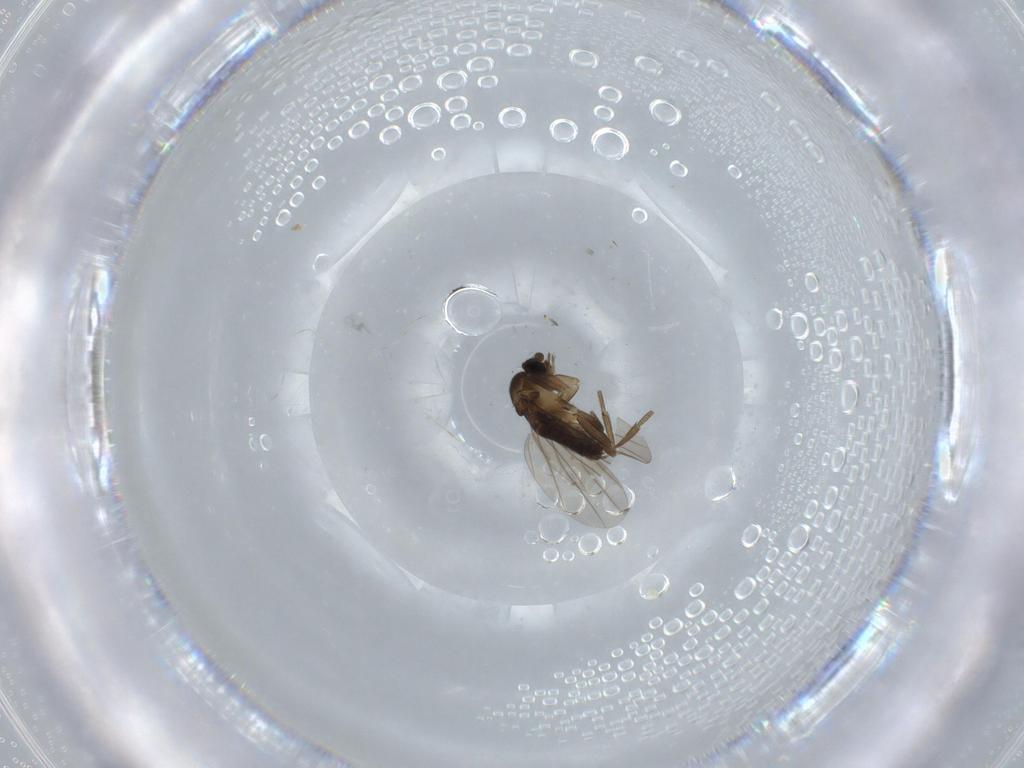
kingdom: Animalia
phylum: Arthropoda
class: Insecta
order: Diptera
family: Phoridae
